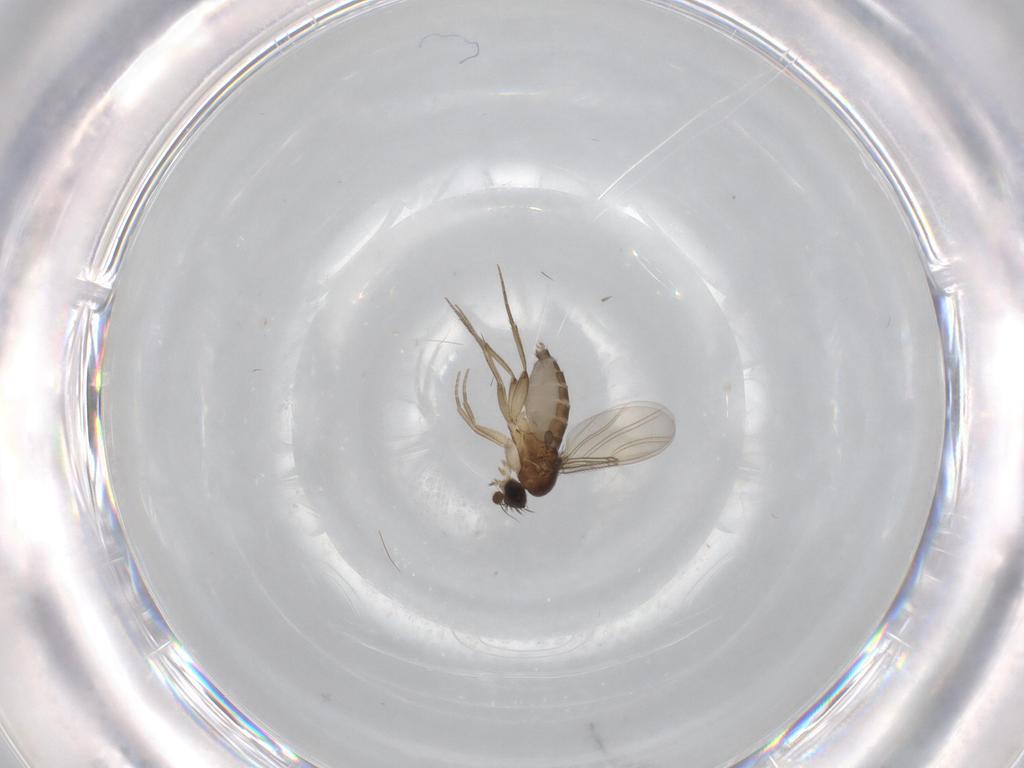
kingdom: Animalia
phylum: Arthropoda
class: Insecta
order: Diptera
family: Phoridae
